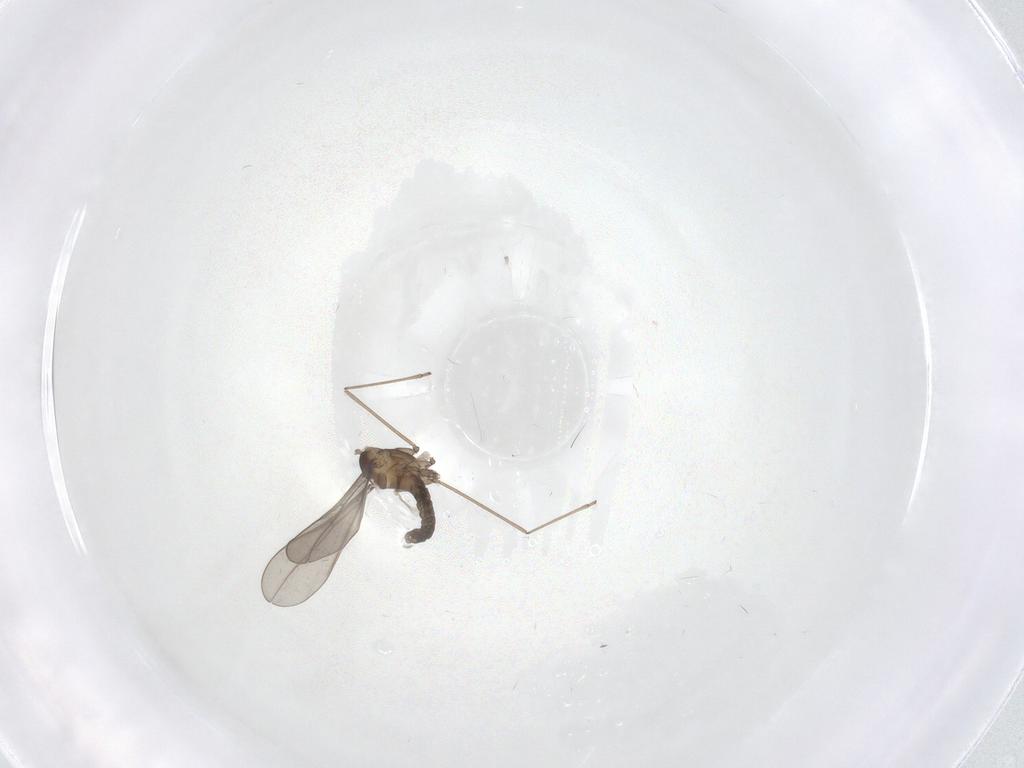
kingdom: Animalia
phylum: Arthropoda
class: Insecta
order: Diptera
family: Cecidomyiidae
